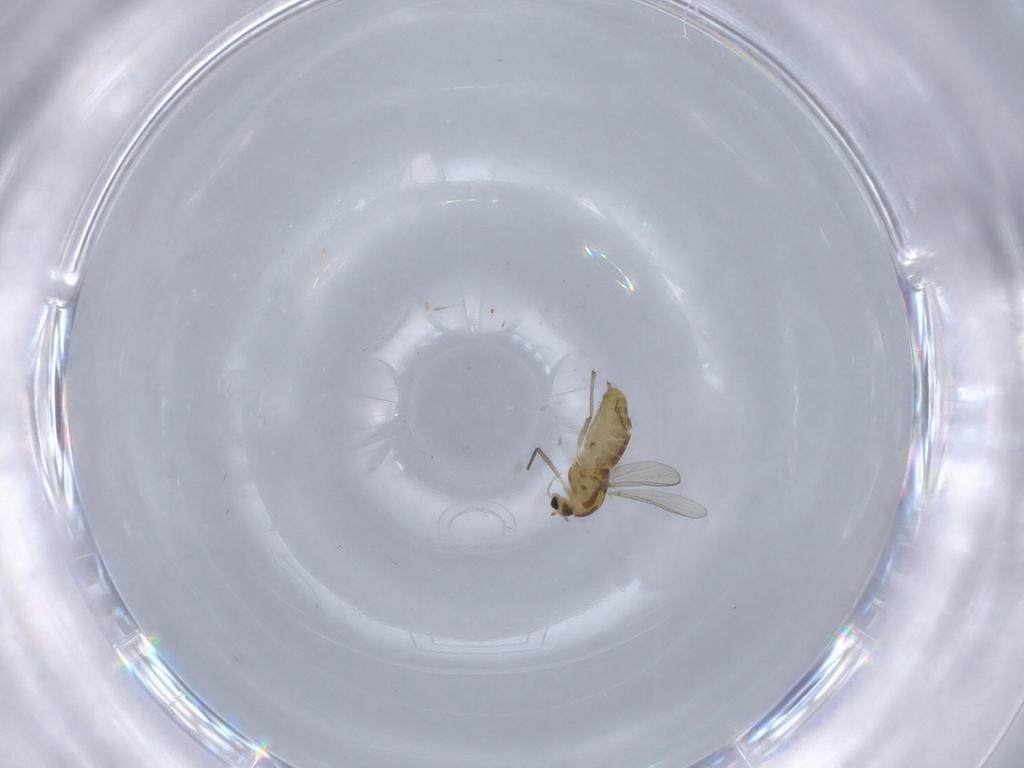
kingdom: Animalia
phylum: Arthropoda
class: Insecta
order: Diptera
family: Chironomidae
